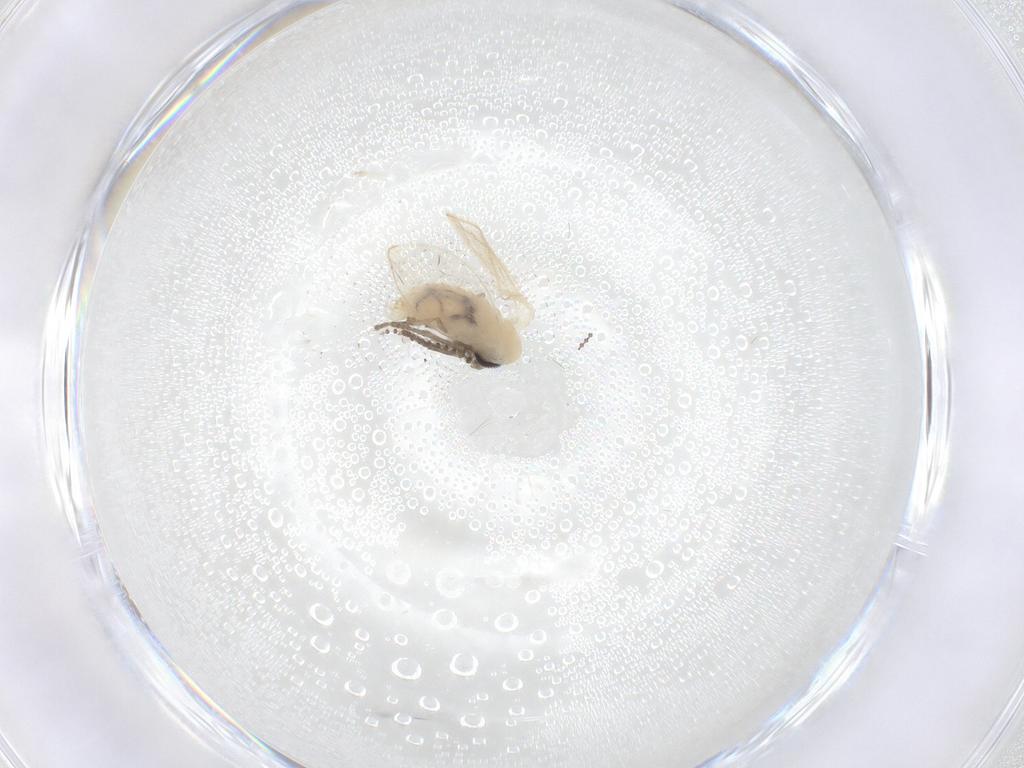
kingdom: Animalia
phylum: Arthropoda
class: Insecta
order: Diptera
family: Psychodidae
